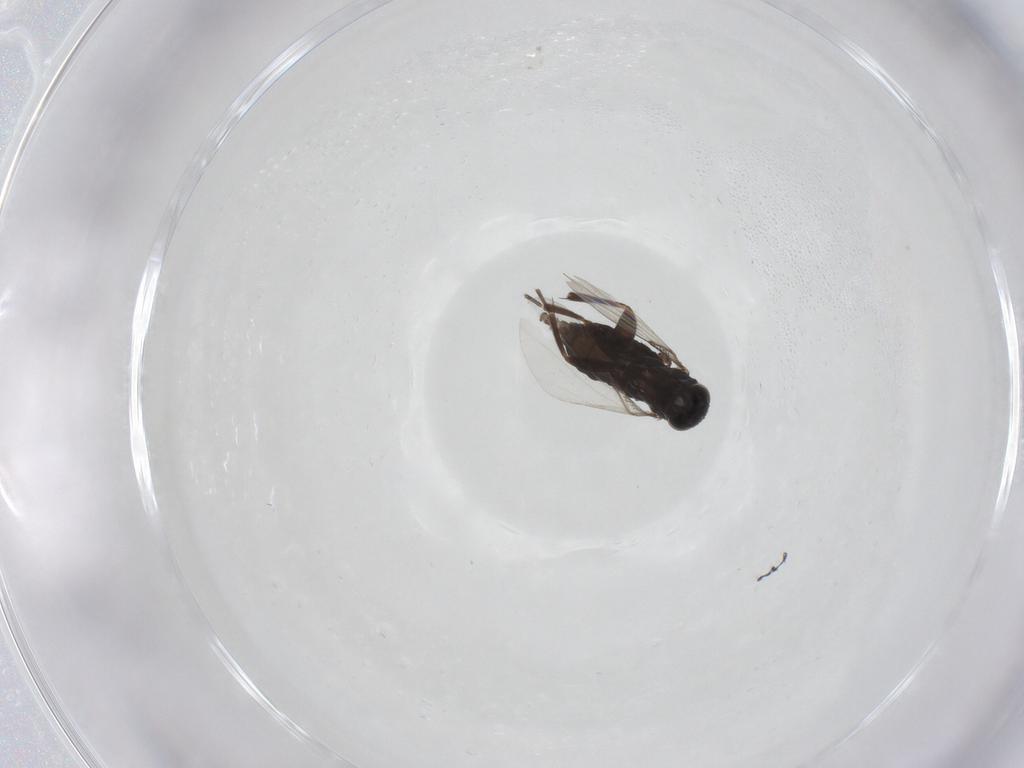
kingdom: Animalia
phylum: Arthropoda
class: Insecta
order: Diptera
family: Phoridae
